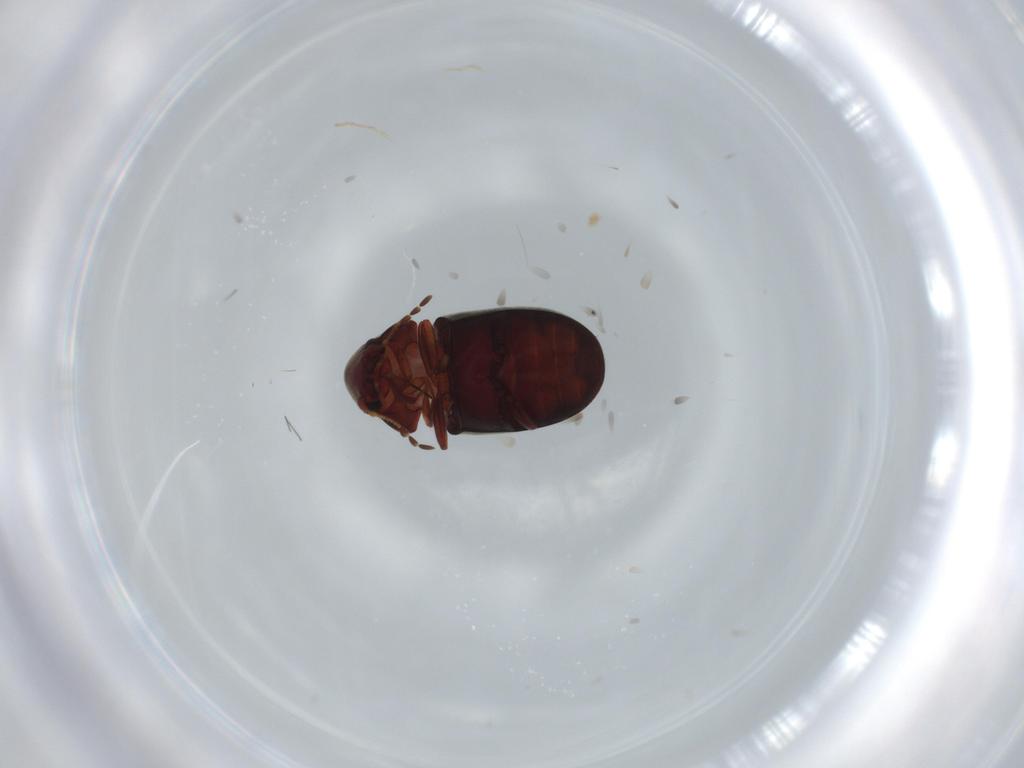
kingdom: Animalia
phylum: Arthropoda
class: Insecta
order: Coleoptera
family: Ptinidae
